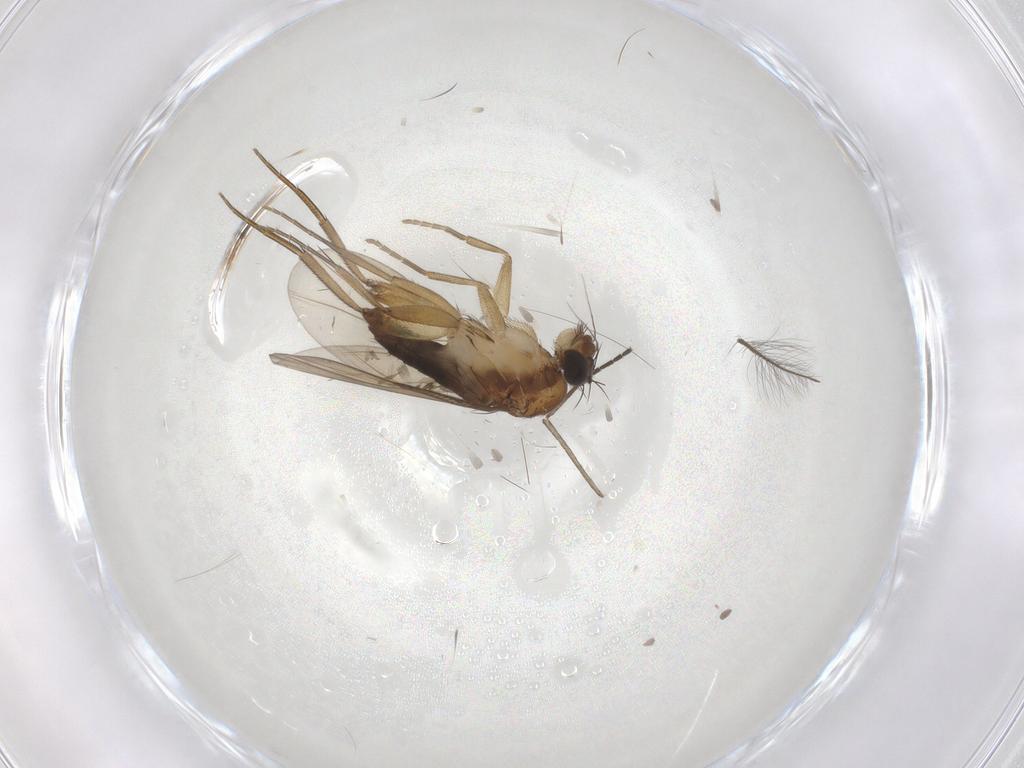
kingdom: Animalia
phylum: Arthropoda
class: Insecta
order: Diptera
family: Phoridae
